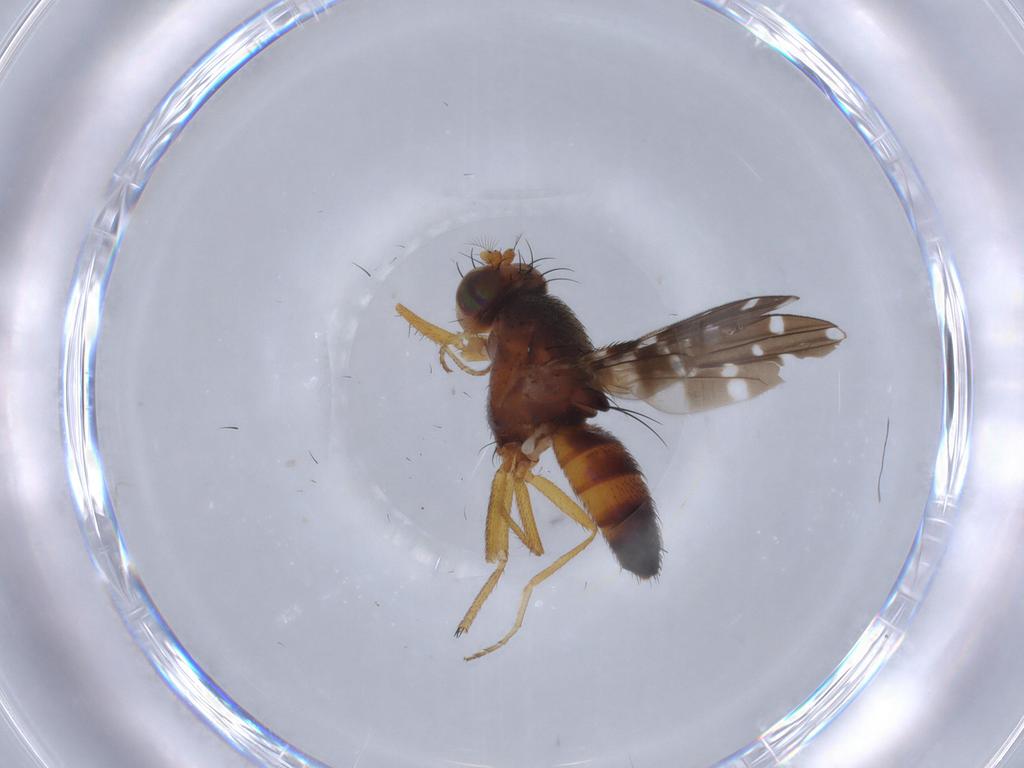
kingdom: Animalia
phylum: Arthropoda
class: Insecta
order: Diptera
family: Ephydridae
